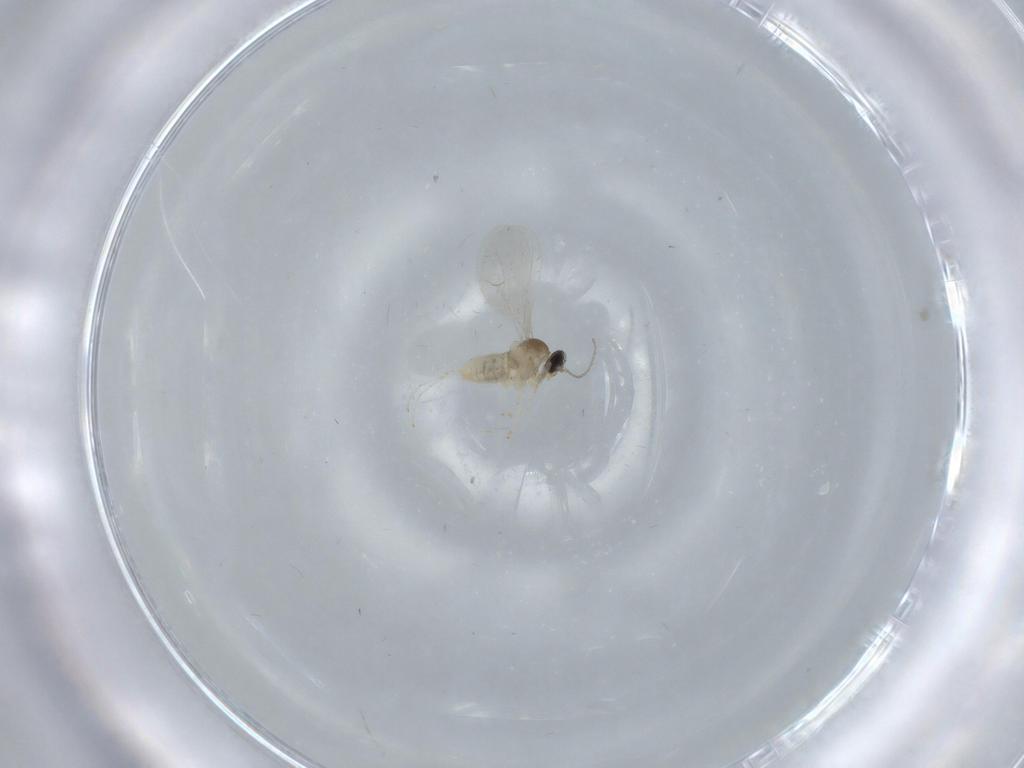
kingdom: Animalia
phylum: Arthropoda
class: Insecta
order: Diptera
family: Cecidomyiidae
